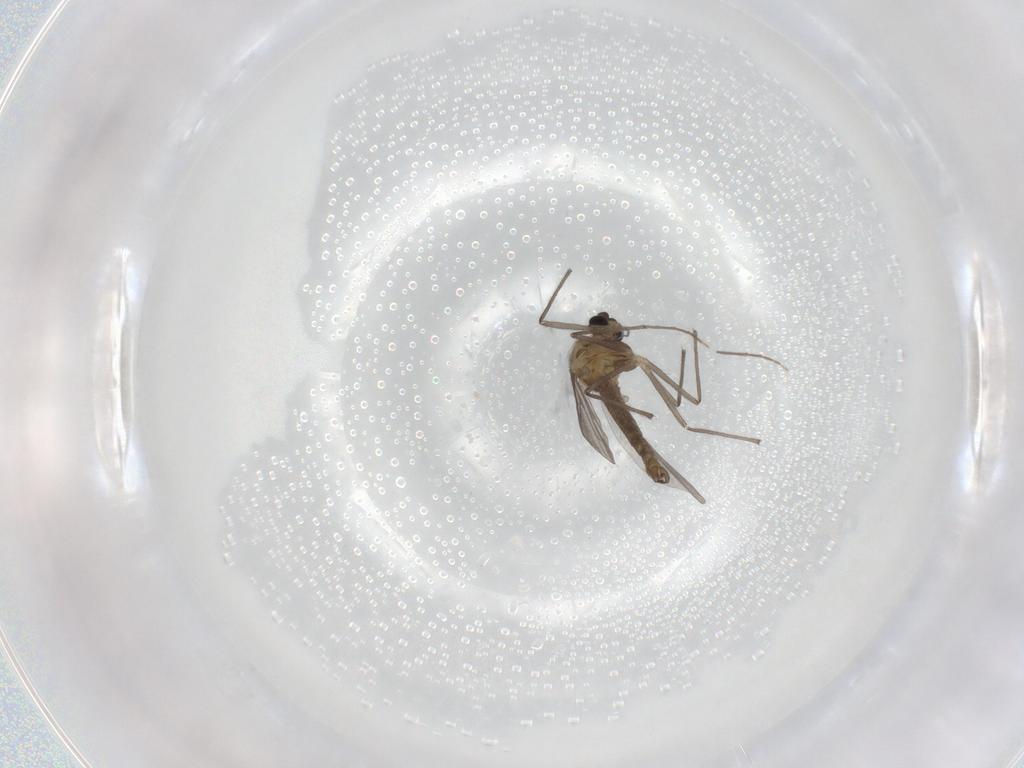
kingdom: Animalia
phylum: Arthropoda
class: Insecta
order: Diptera
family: Chironomidae
